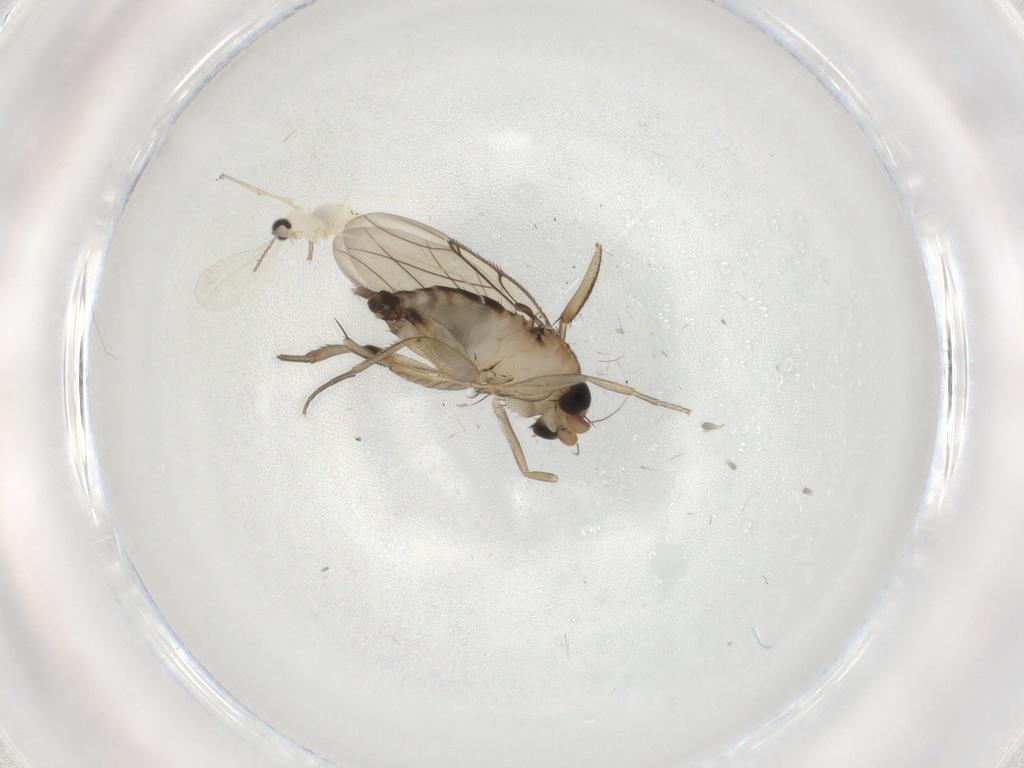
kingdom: Animalia
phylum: Arthropoda
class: Insecta
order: Diptera
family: Phoridae
